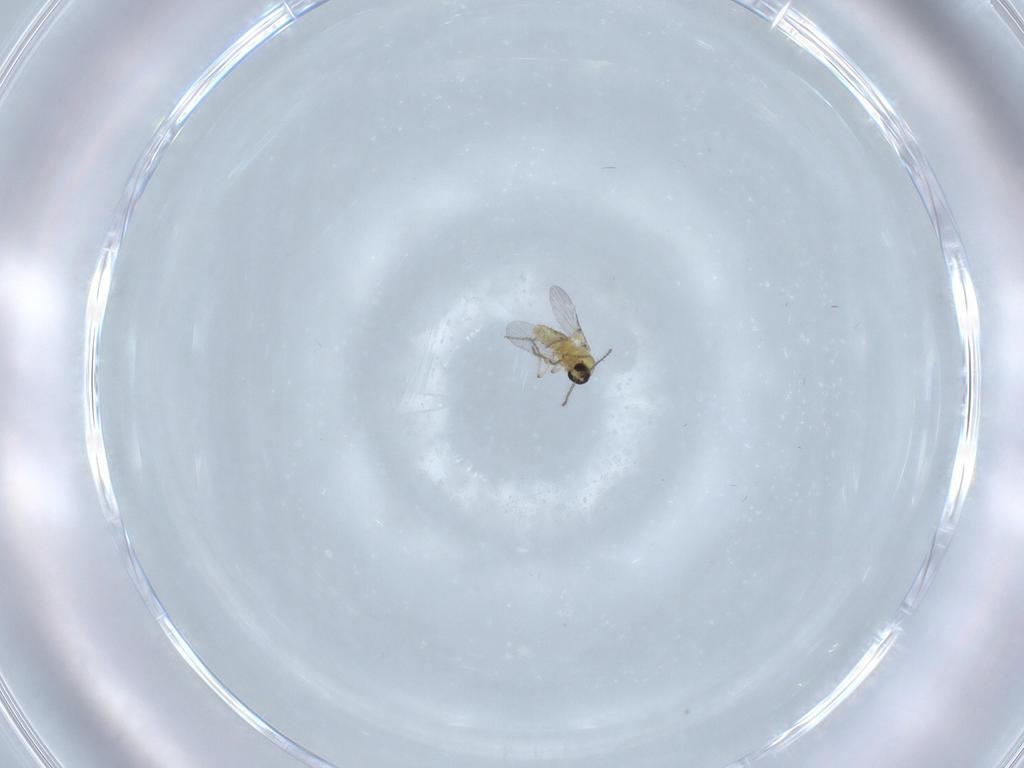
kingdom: Animalia
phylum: Arthropoda
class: Insecta
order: Diptera
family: Ceratopogonidae
